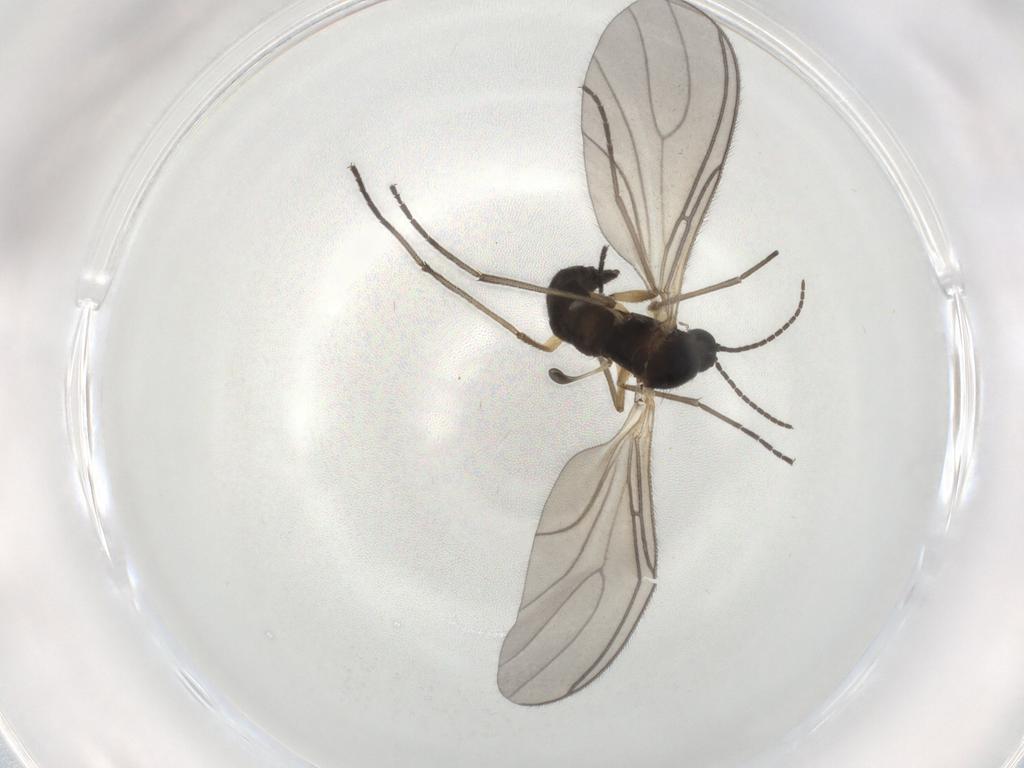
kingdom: Animalia
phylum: Arthropoda
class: Insecta
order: Diptera
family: Sciaridae
